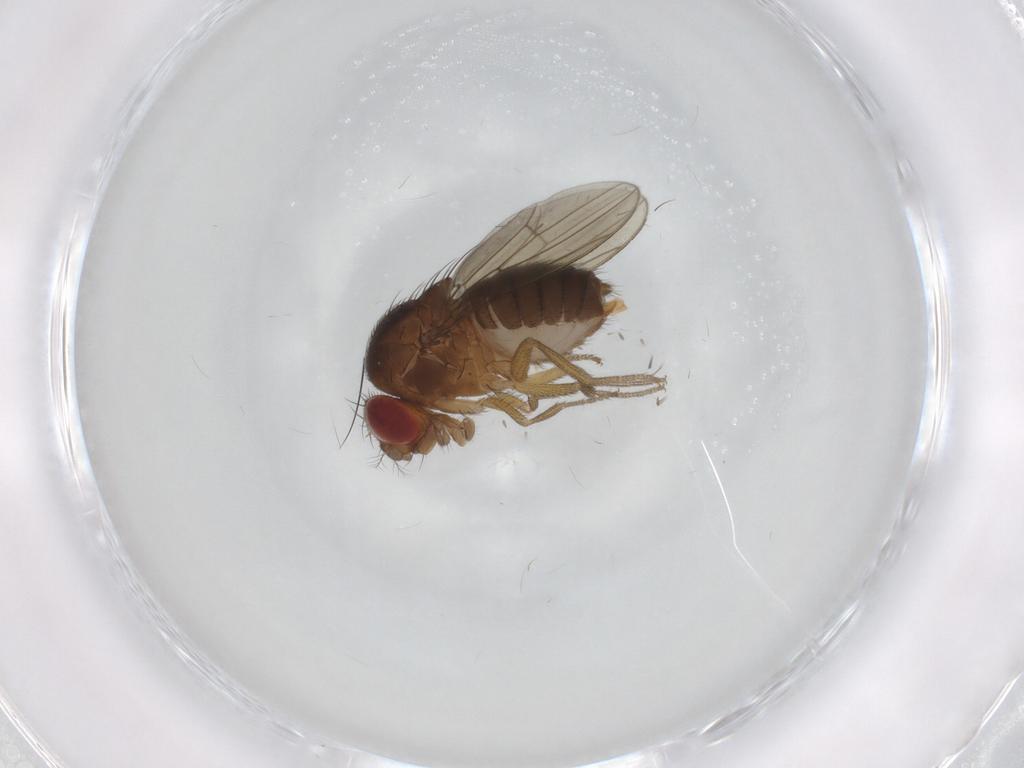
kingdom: Animalia
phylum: Arthropoda
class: Insecta
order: Diptera
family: Drosophilidae
